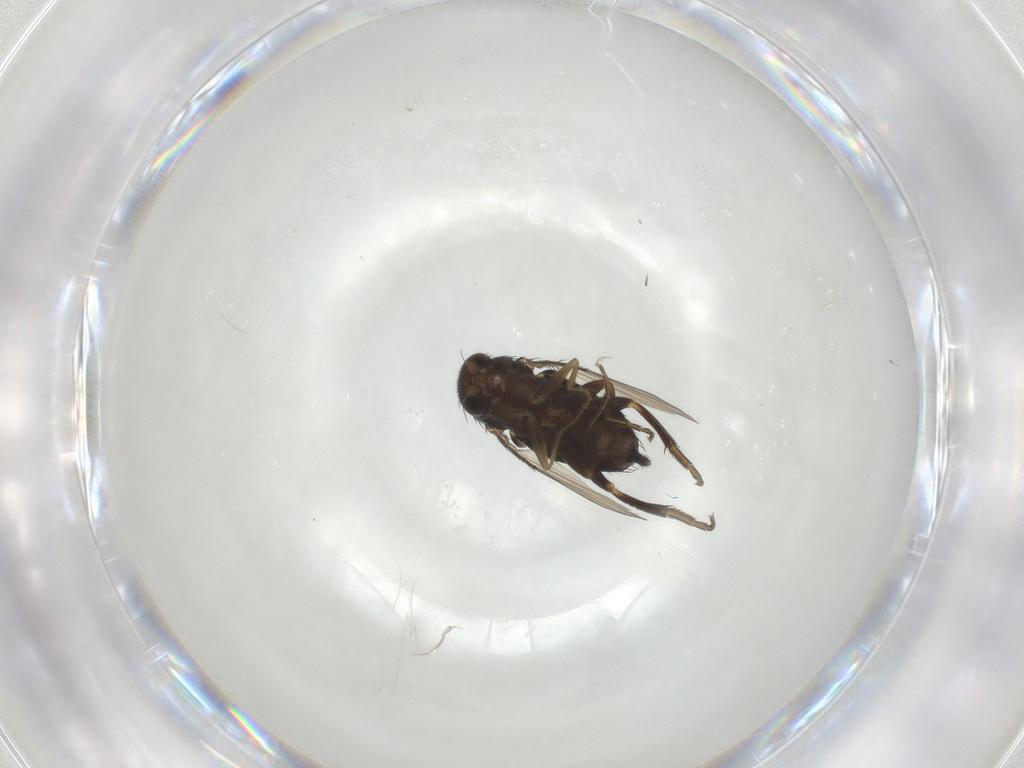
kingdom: Animalia
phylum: Arthropoda
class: Insecta
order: Diptera
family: Phoridae
